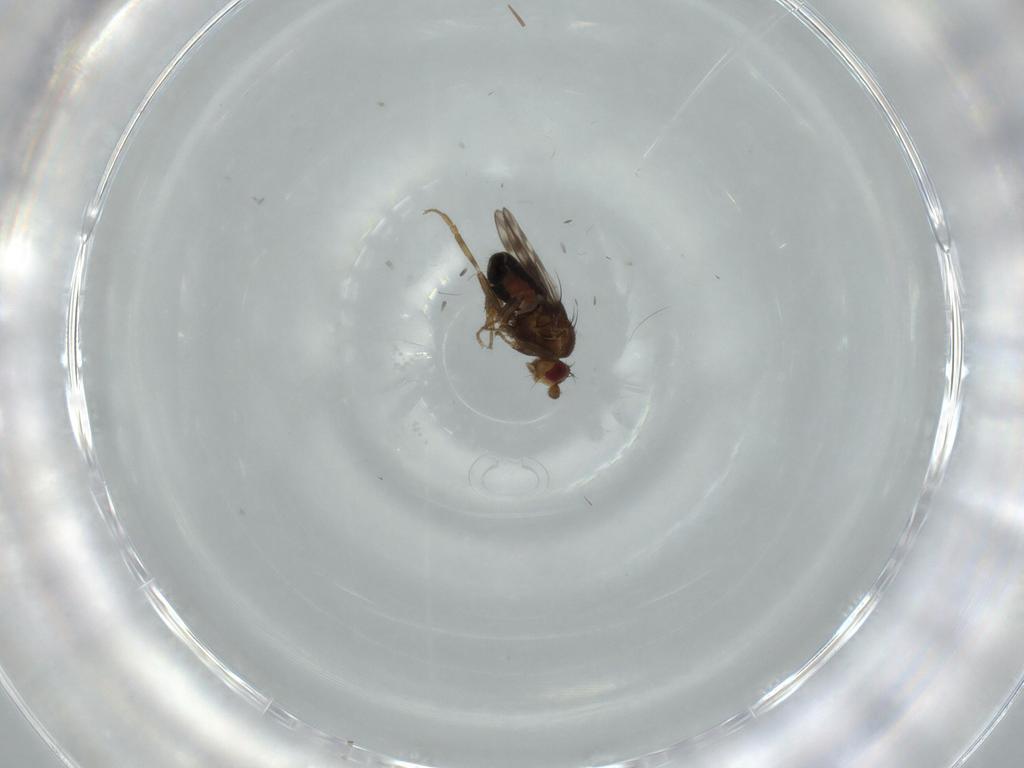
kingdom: Animalia
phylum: Arthropoda
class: Insecta
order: Diptera
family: Sphaeroceridae
